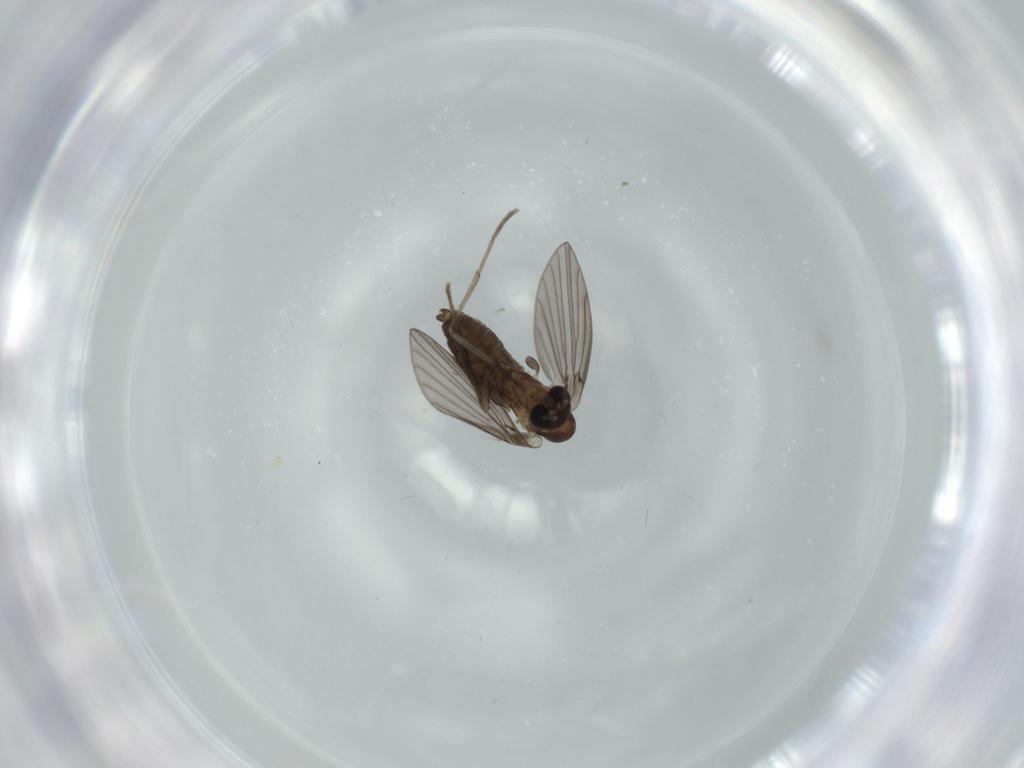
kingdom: Animalia
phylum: Arthropoda
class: Insecta
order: Diptera
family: Psychodidae
